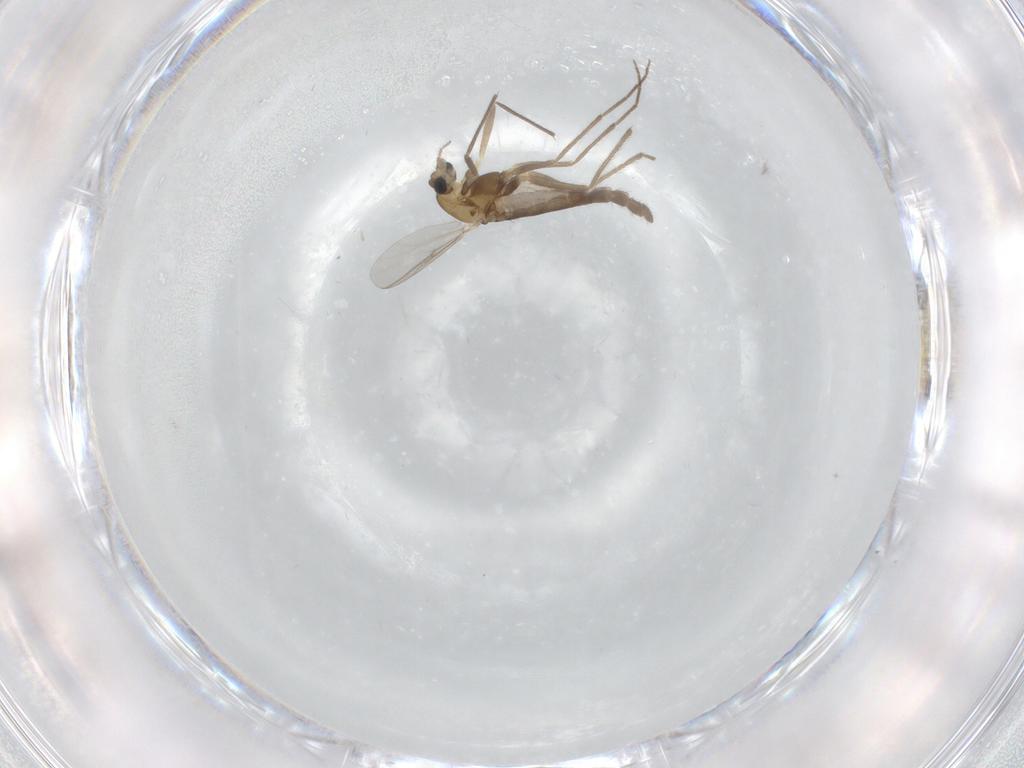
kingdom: Animalia
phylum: Arthropoda
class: Insecta
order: Diptera
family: Chironomidae
